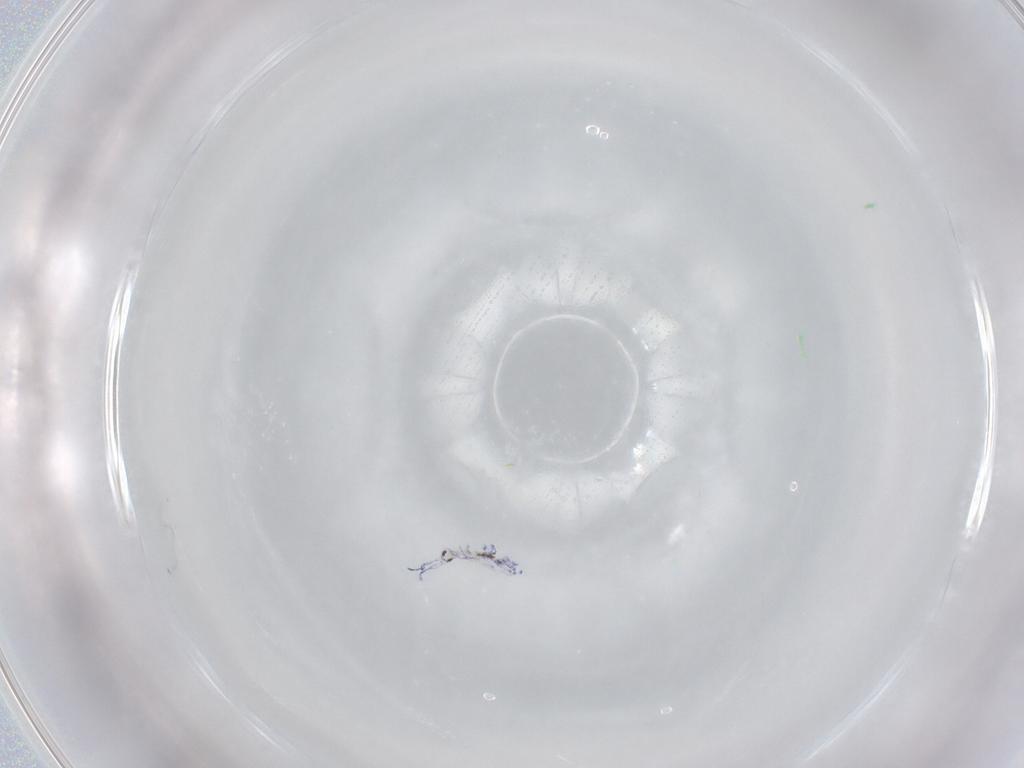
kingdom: Animalia
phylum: Arthropoda
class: Collembola
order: Entomobryomorpha
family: Entomobryidae
